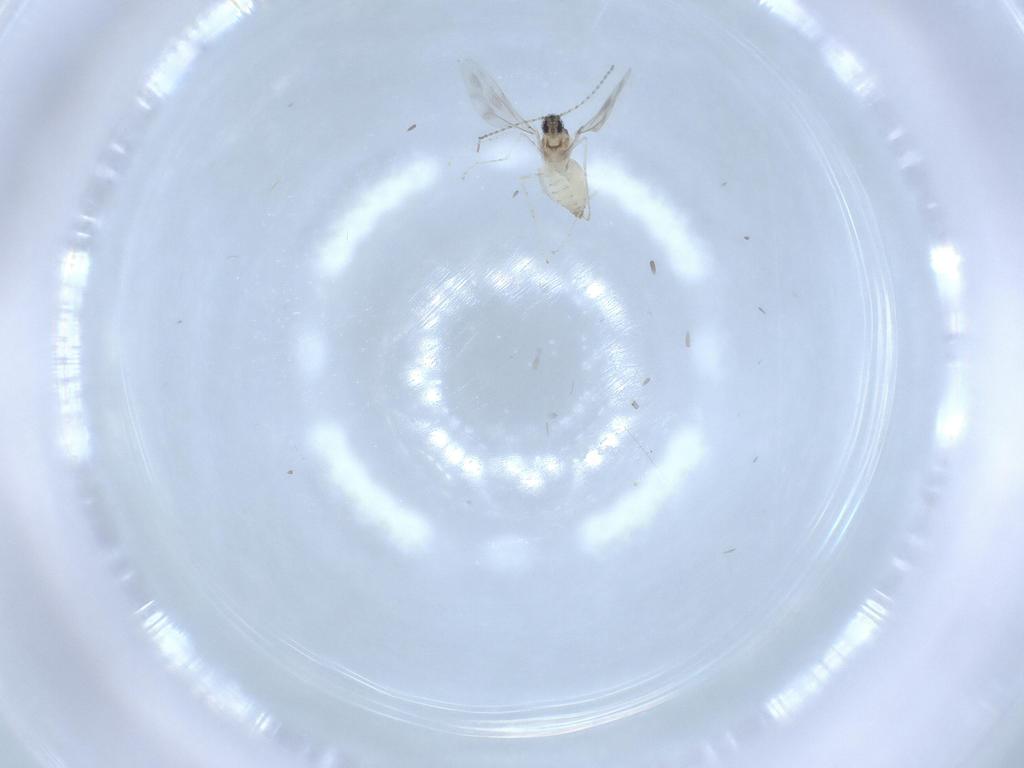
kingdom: Animalia
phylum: Arthropoda
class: Insecta
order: Diptera
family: Cecidomyiidae
